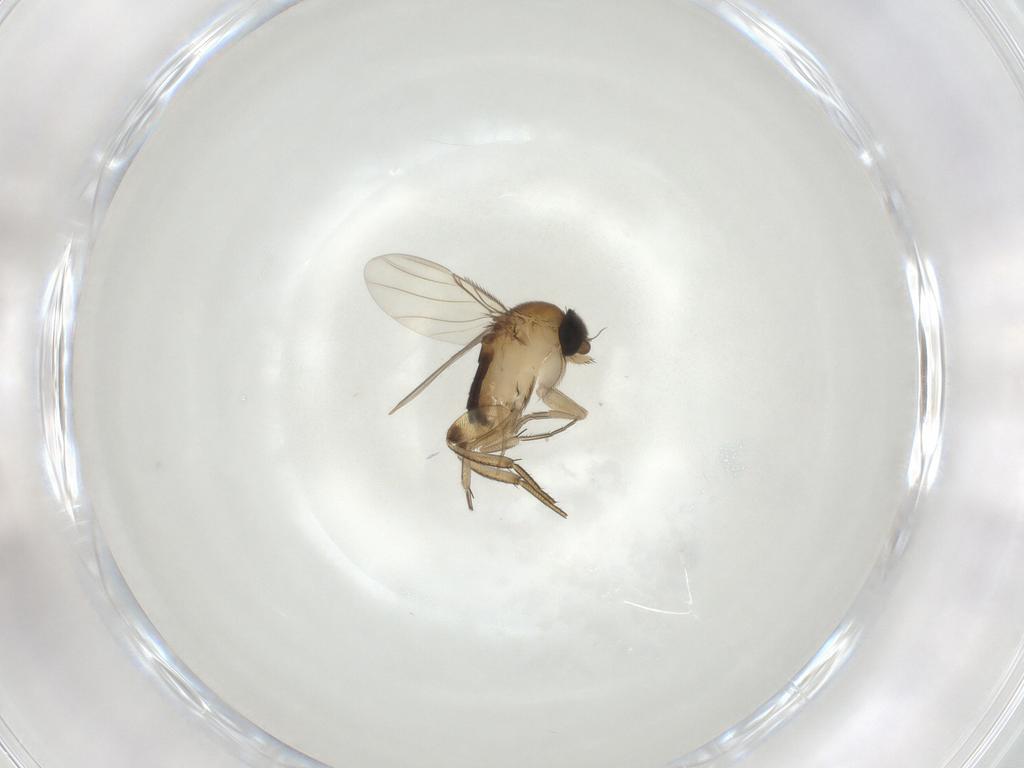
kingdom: Animalia
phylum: Arthropoda
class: Insecta
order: Diptera
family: Phoridae
